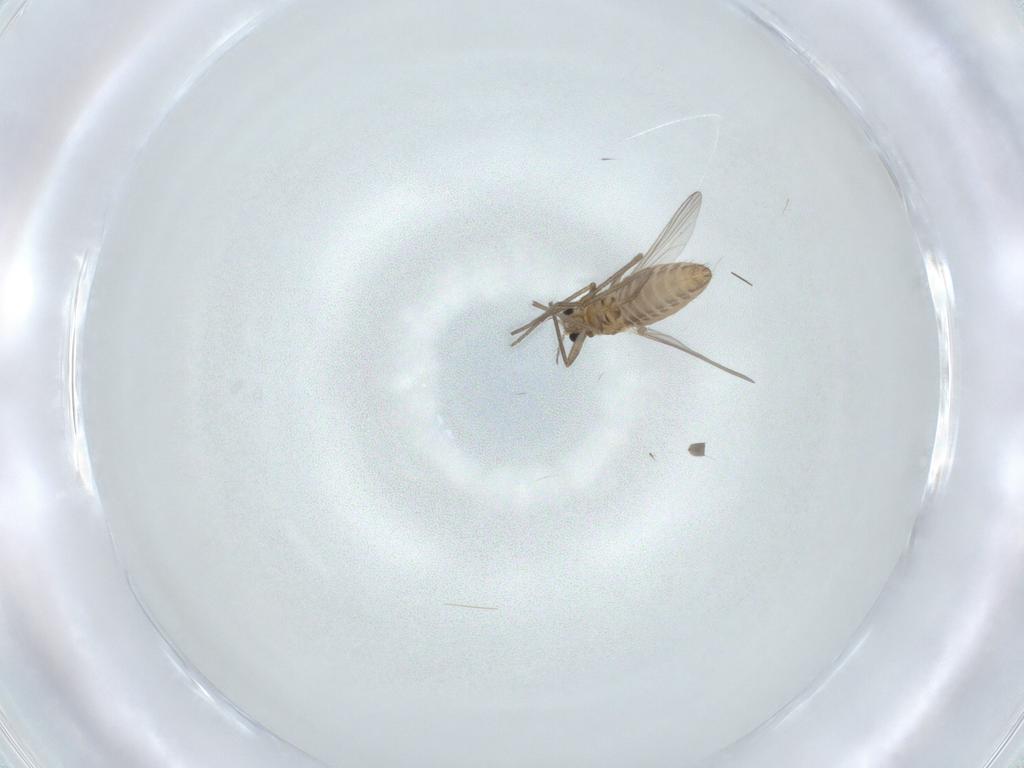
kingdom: Animalia
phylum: Arthropoda
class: Insecta
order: Diptera
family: Chironomidae
